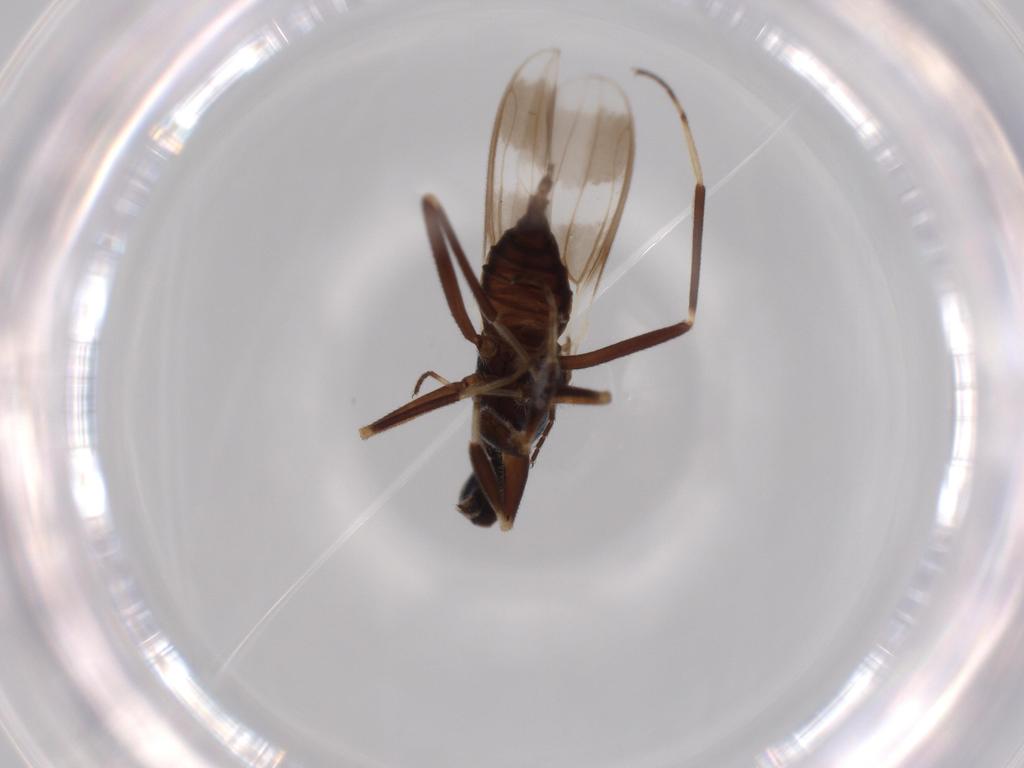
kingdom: Animalia
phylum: Arthropoda
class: Insecta
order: Diptera
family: Hybotidae
